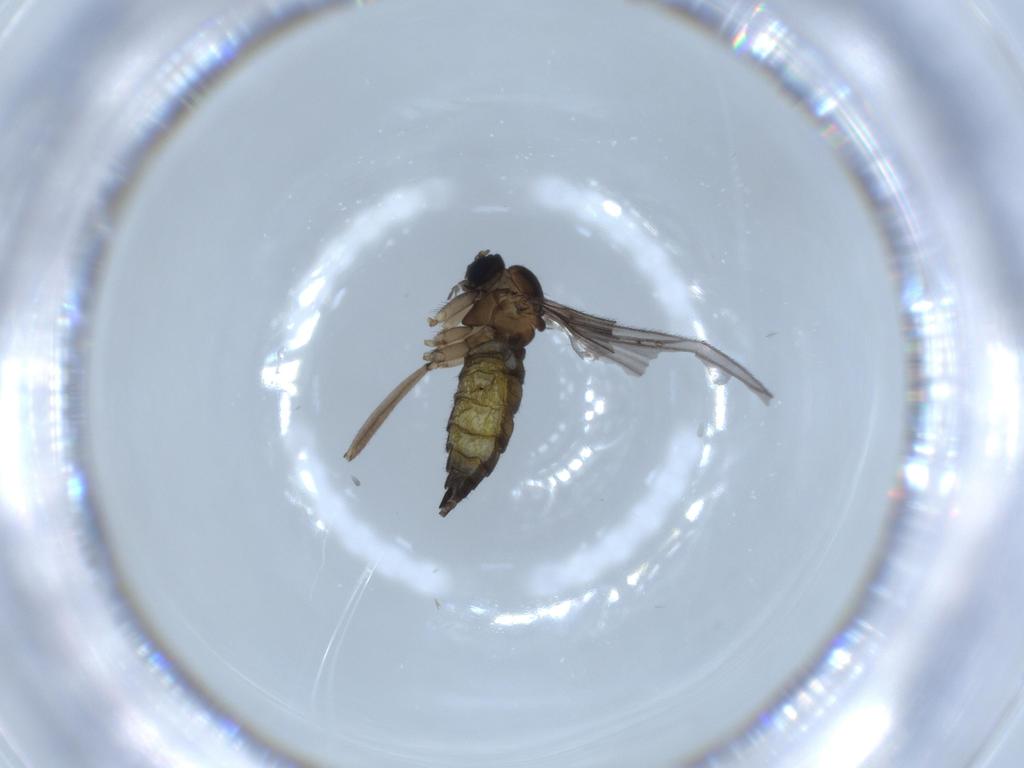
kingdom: Animalia
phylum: Arthropoda
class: Insecta
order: Diptera
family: Sciaridae
